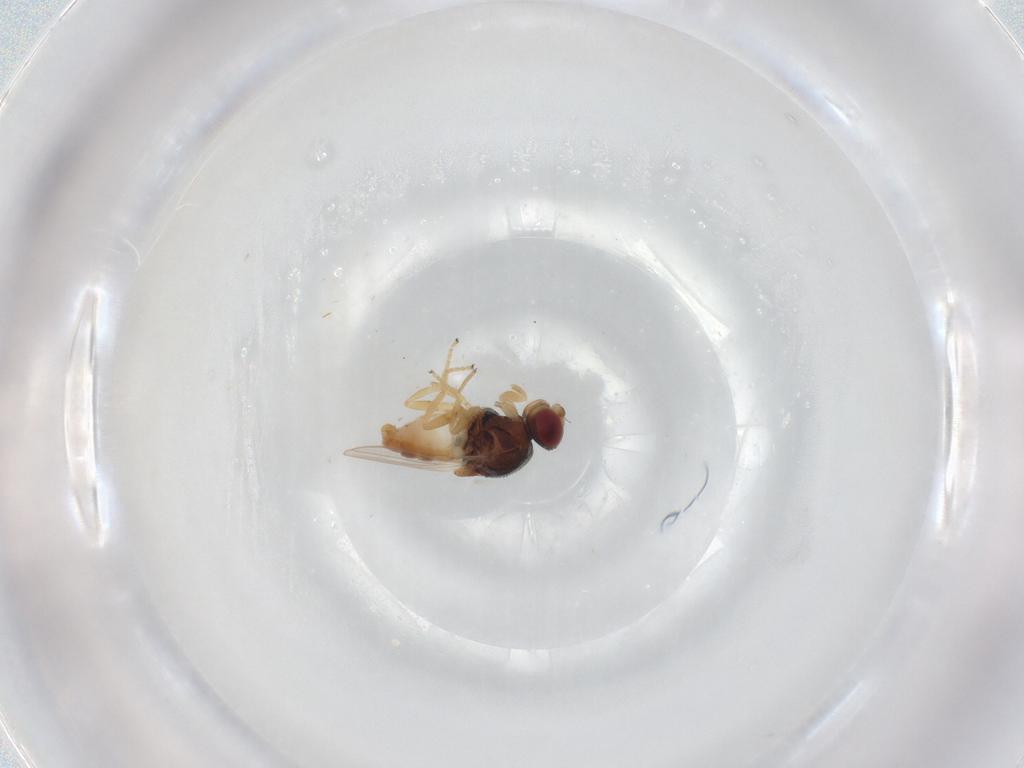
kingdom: Animalia
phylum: Arthropoda
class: Insecta
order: Diptera
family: Chloropidae
